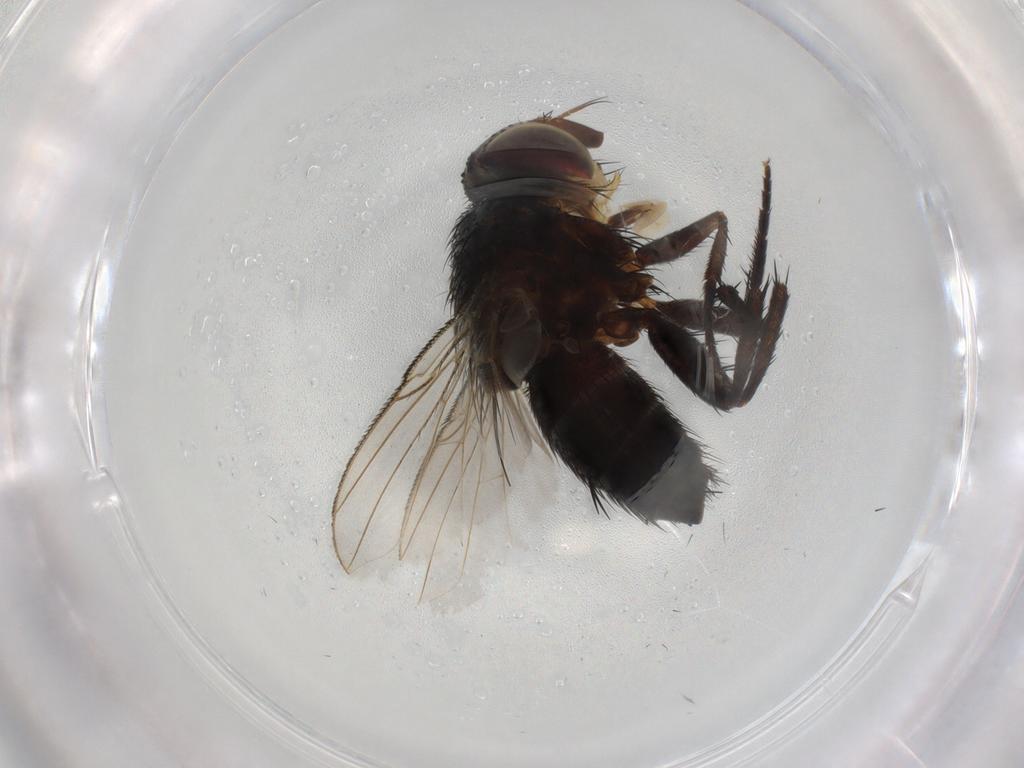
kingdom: Animalia
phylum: Arthropoda
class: Insecta
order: Diptera
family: Tachinidae
